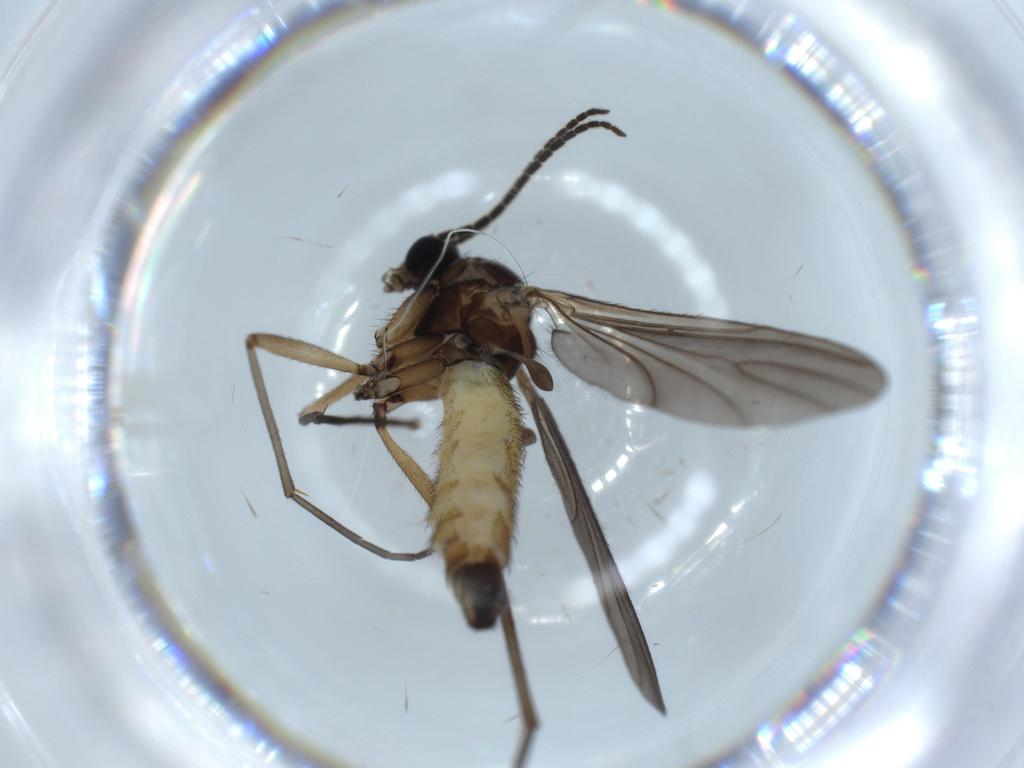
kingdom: Animalia
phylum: Arthropoda
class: Insecta
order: Diptera
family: Sciaridae
